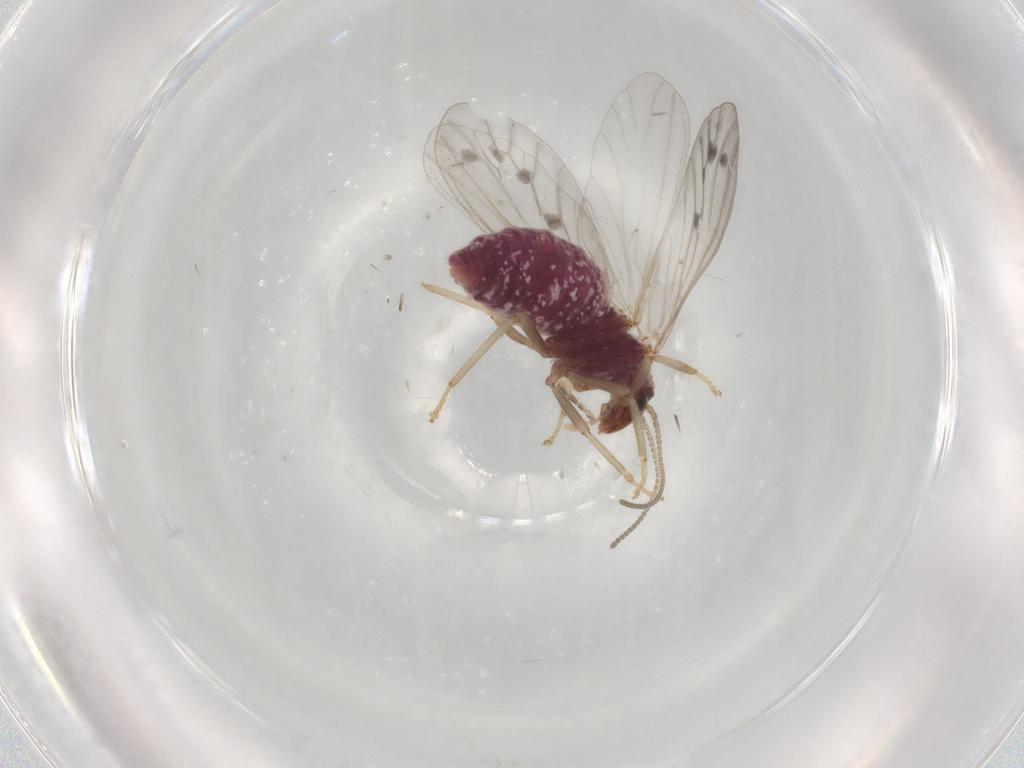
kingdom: Animalia
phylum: Arthropoda
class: Insecta
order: Neuroptera
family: Coniopterygidae
